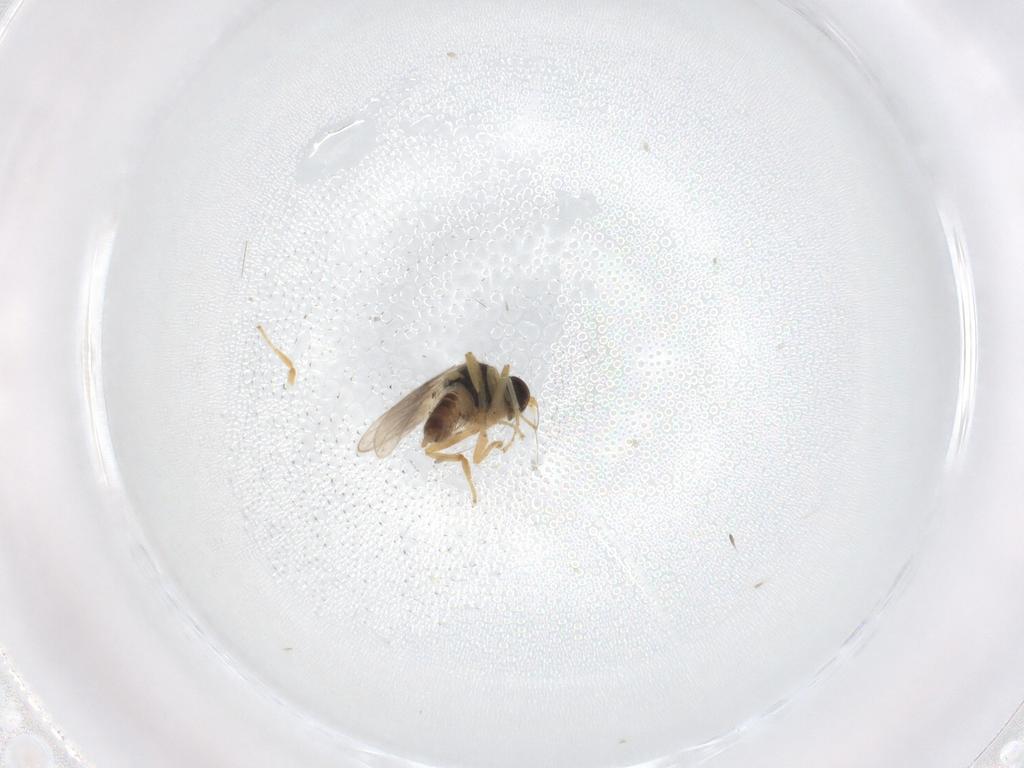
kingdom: Animalia
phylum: Arthropoda
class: Insecta
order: Diptera
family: Hybotidae
